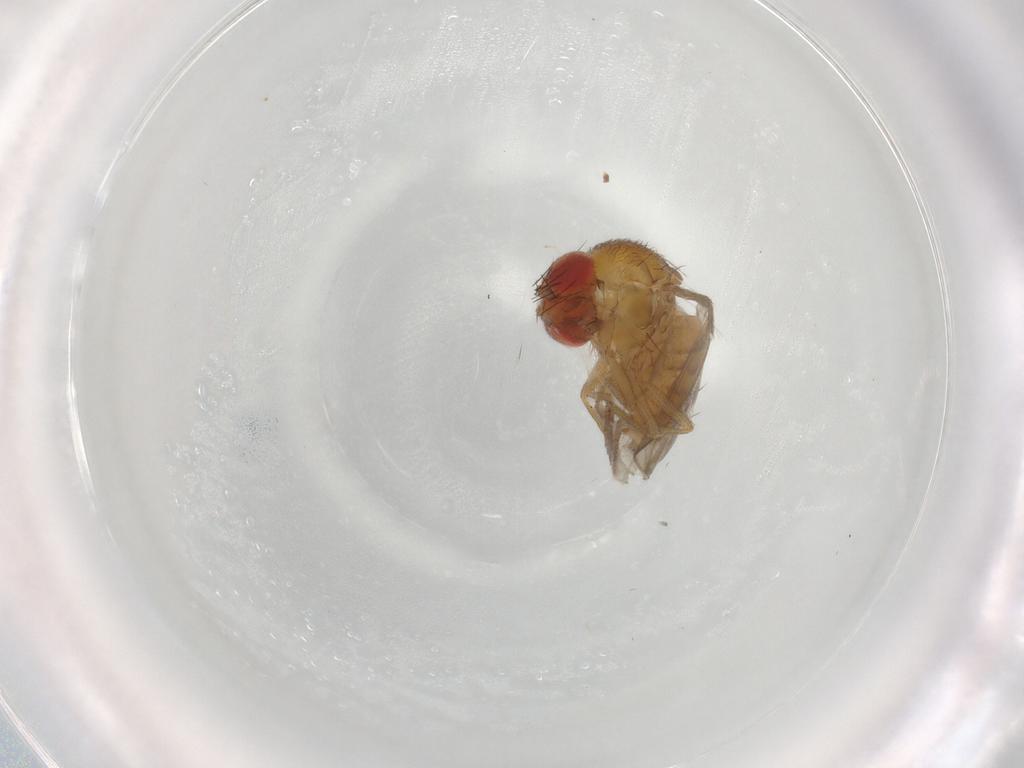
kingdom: Animalia
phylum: Arthropoda
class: Insecta
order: Diptera
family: Drosophilidae
